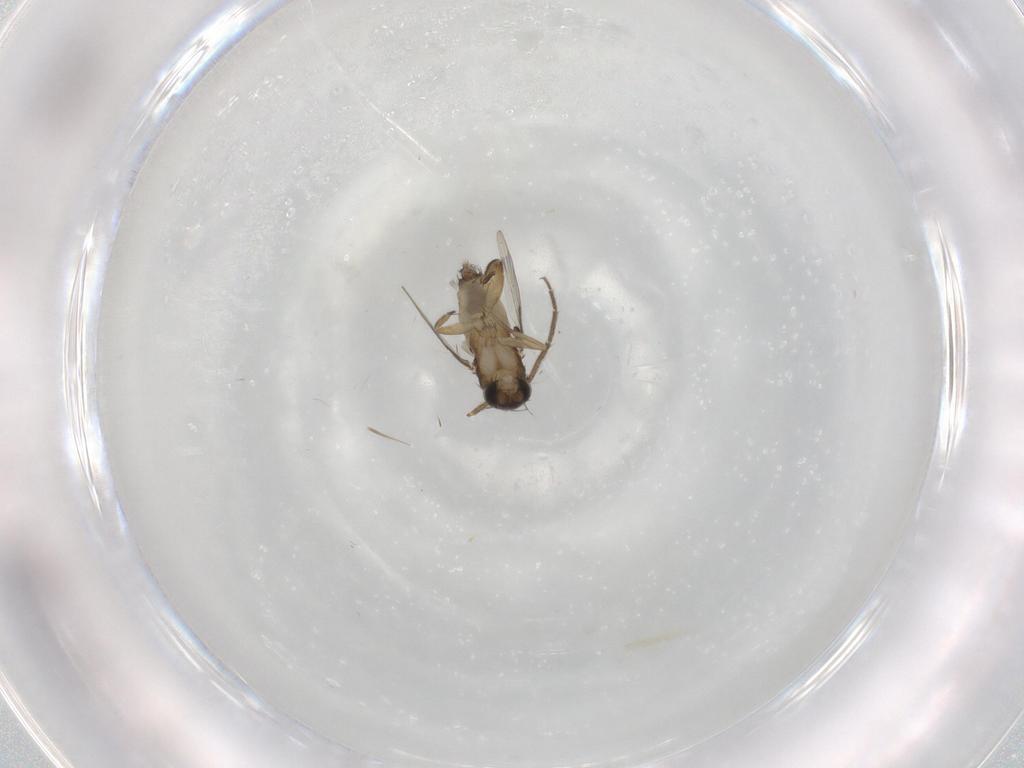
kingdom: Animalia
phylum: Arthropoda
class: Insecta
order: Diptera
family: Phoridae
